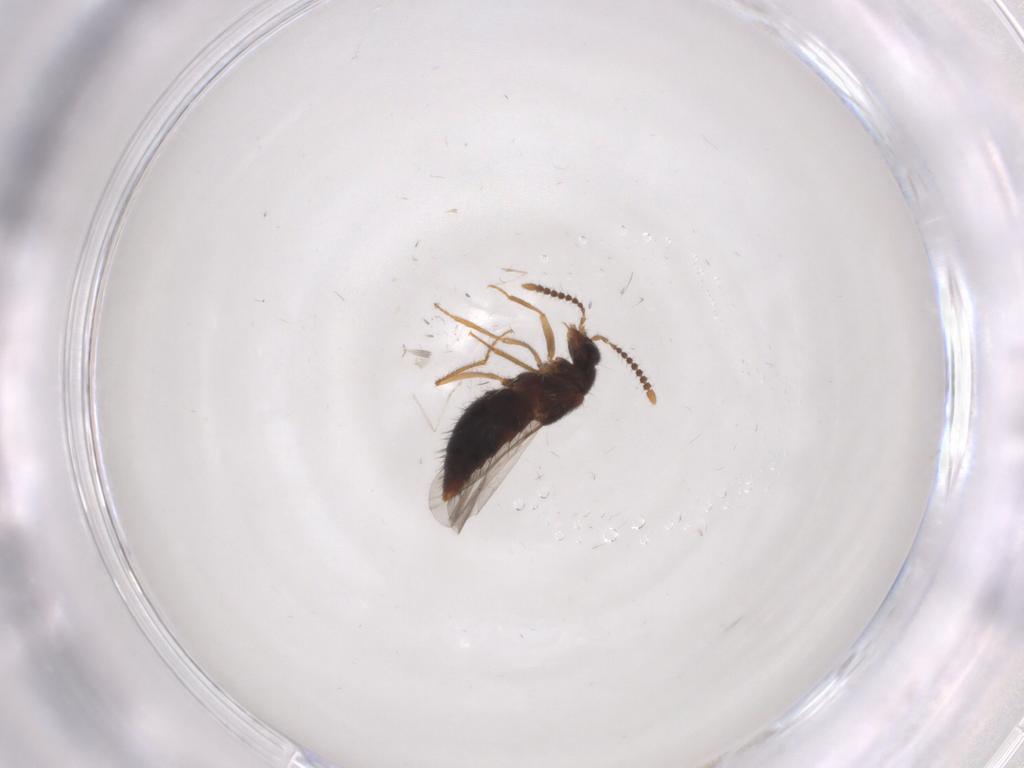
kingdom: Animalia
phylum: Arthropoda
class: Insecta
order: Coleoptera
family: Staphylinidae
